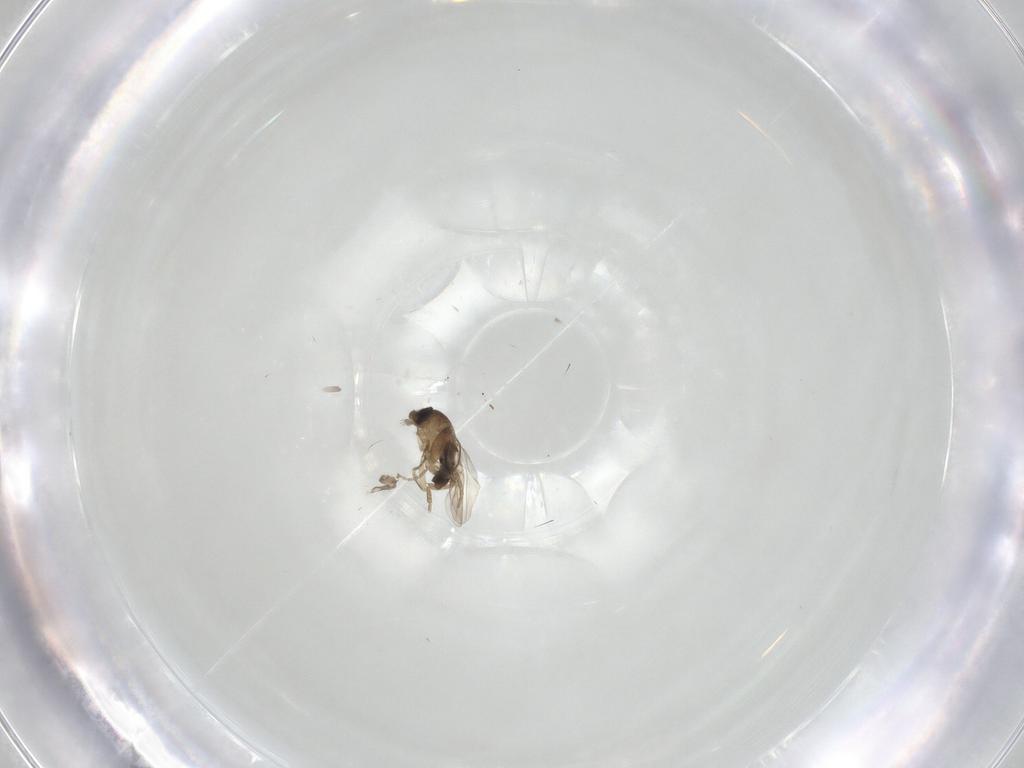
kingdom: Animalia
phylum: Arthropoda
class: Insecta
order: Diptera
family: Psychodidae
